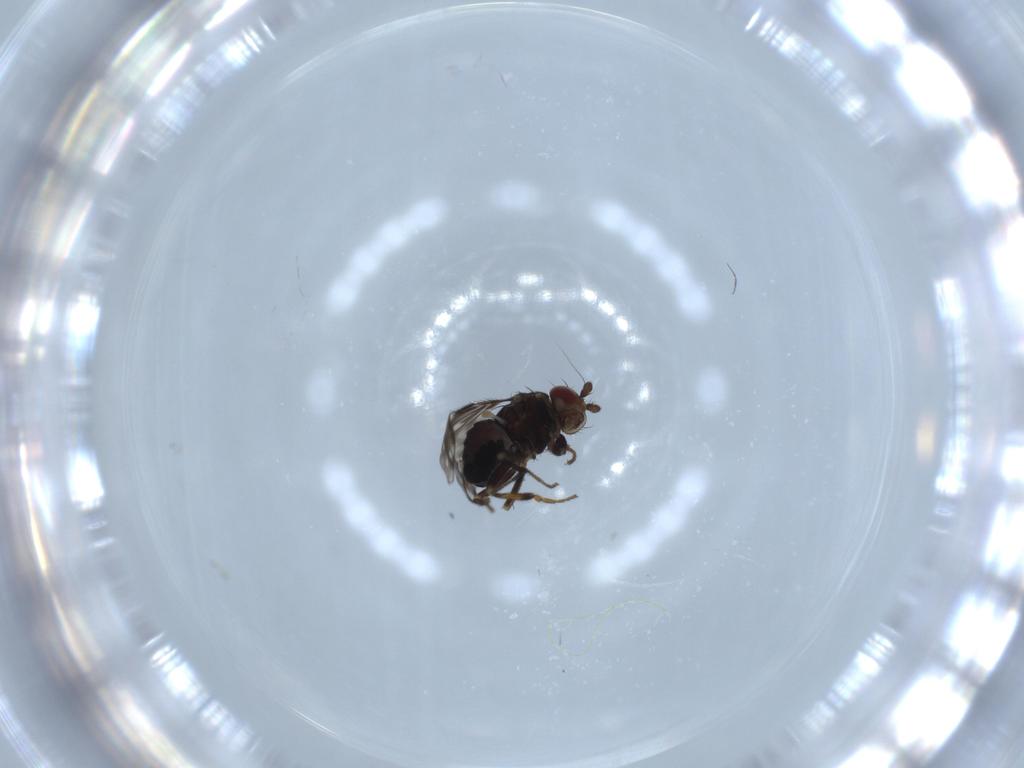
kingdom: Animalia
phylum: Arthropoda
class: Insecta
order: Diptera
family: Sphaeroceridae
